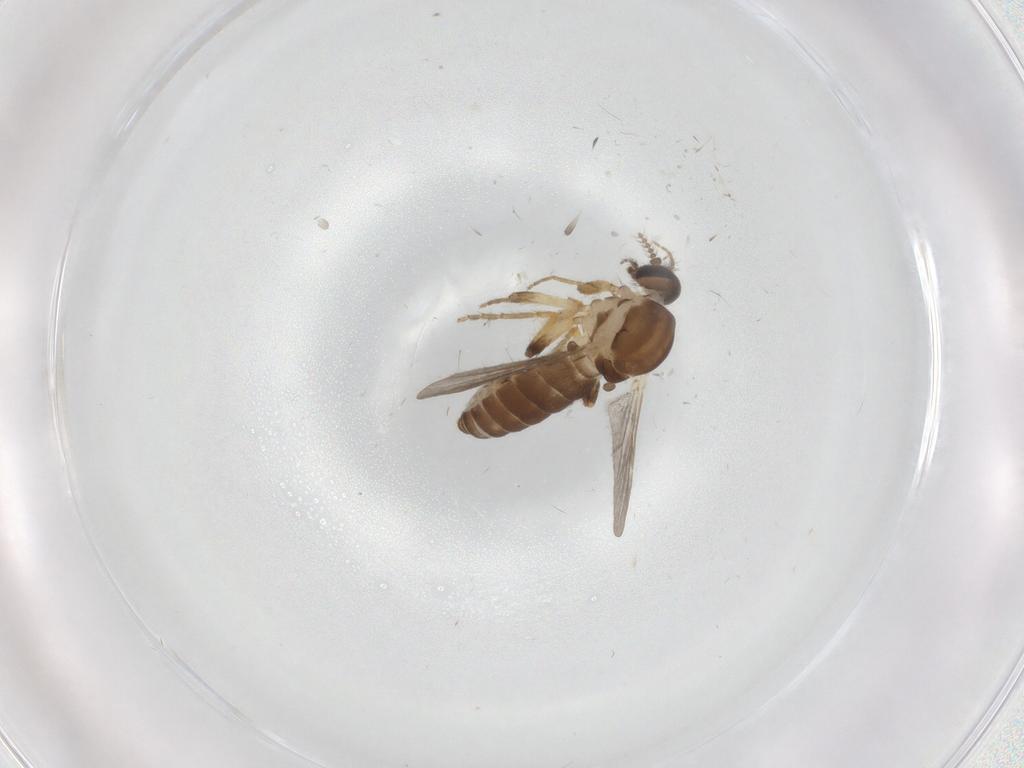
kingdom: Animalia
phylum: Arthropoda
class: Insecta
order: Diptera
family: Ceratopogonidae
